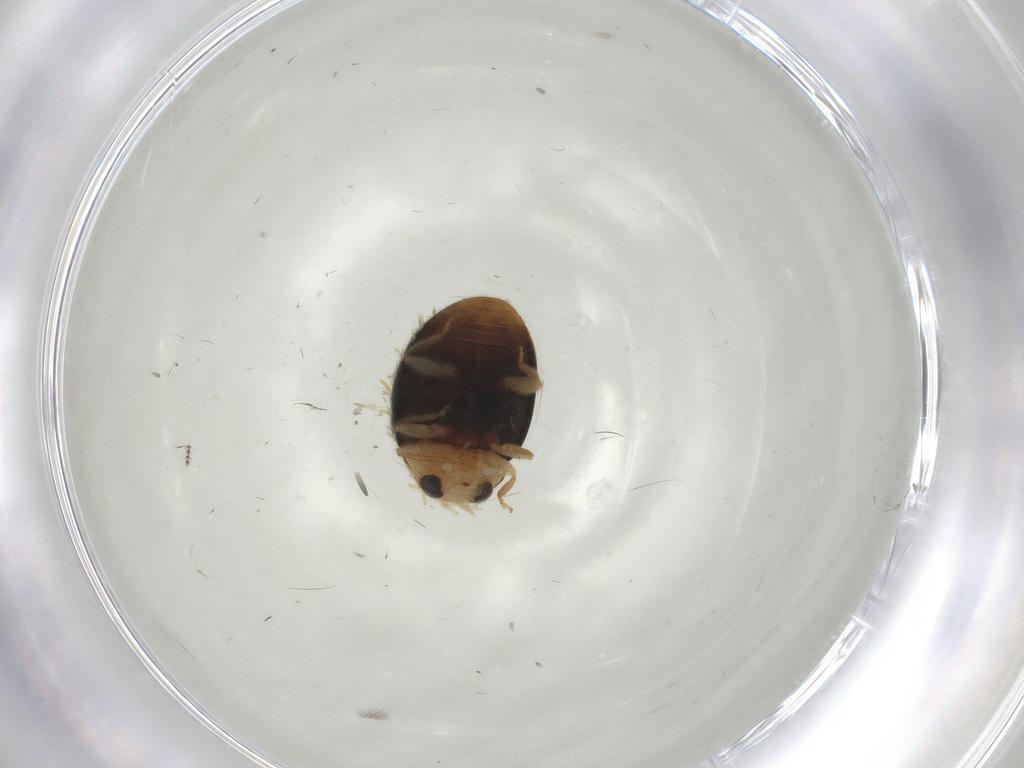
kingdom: Animalia
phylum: Arthropoda
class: Insecta
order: Coleoptera
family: Coccinellidae
